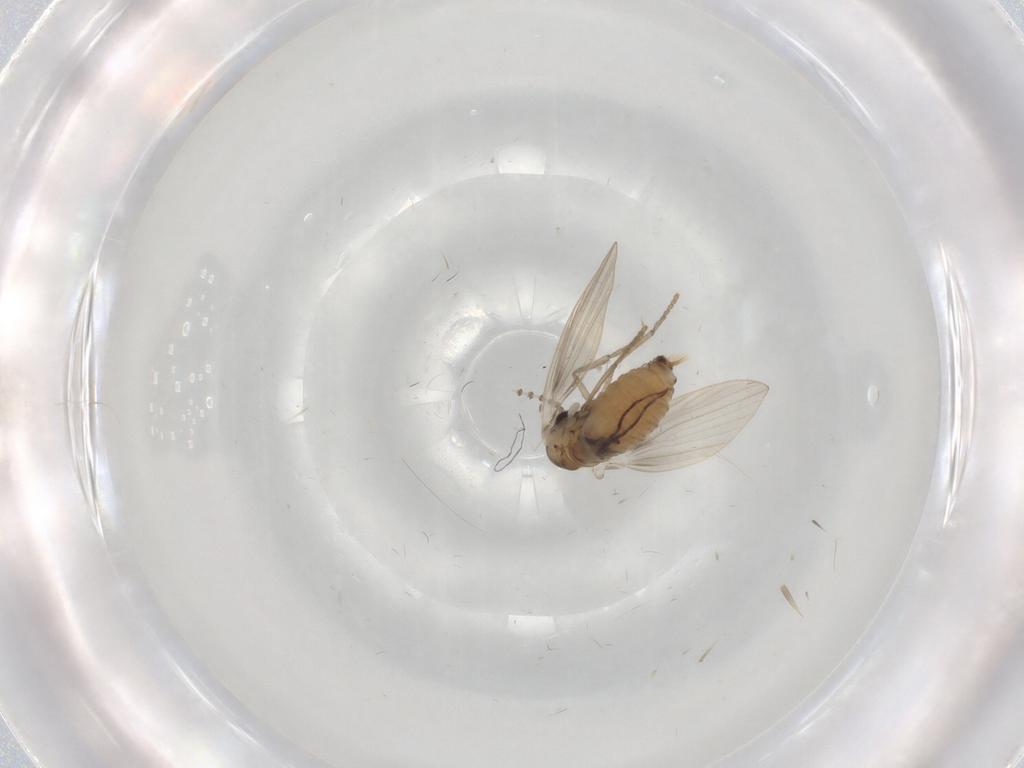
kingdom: Animalia
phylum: Arthropoda
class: Insecta
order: Diptera
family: Psychodidae
